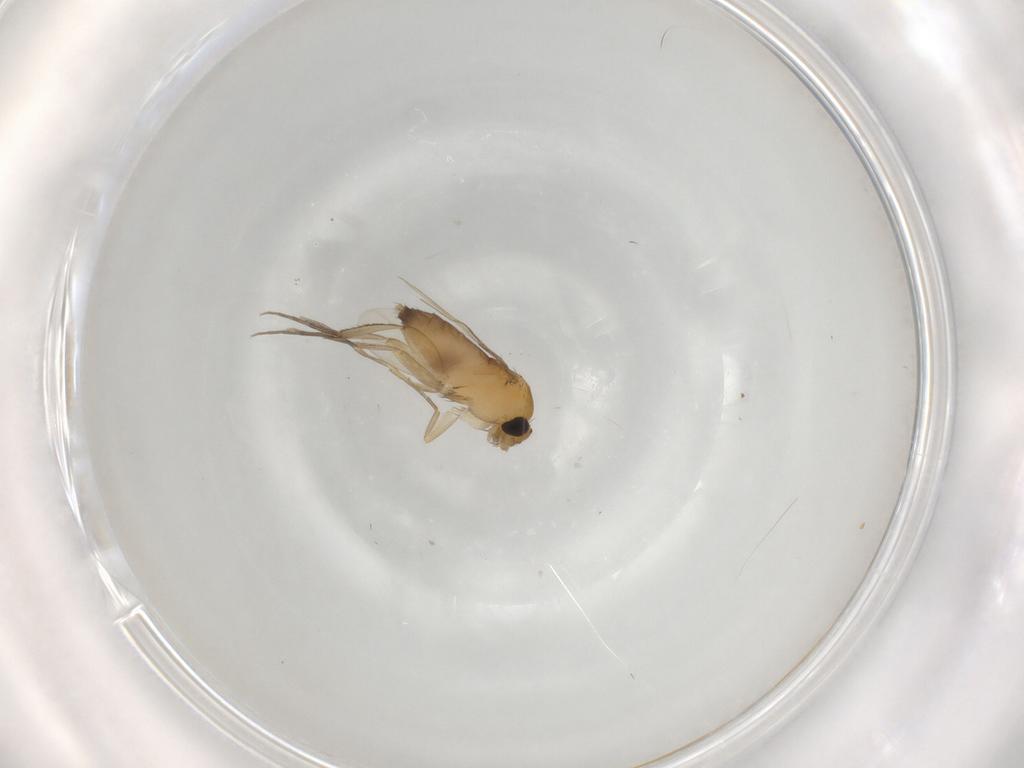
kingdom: Animalia
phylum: Arthropoda
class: Insecta
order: Diptera
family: Phoridae
